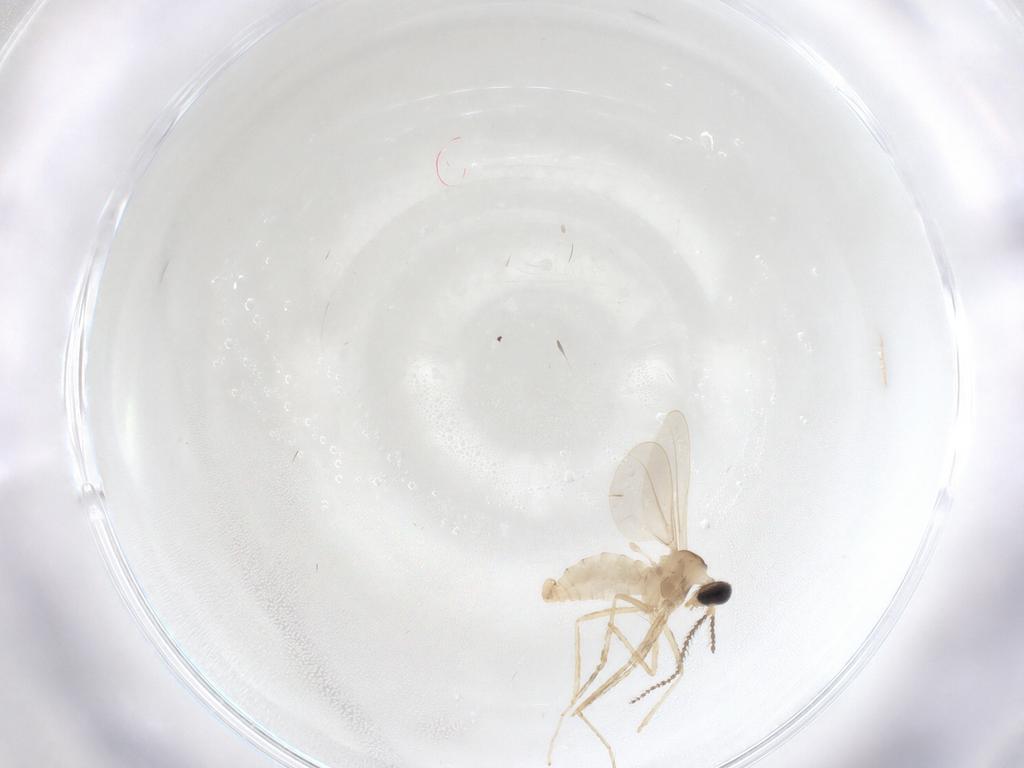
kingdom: Animalia
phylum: Arthropoda
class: Insecta
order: Diptera
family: Cecidomyiidae
